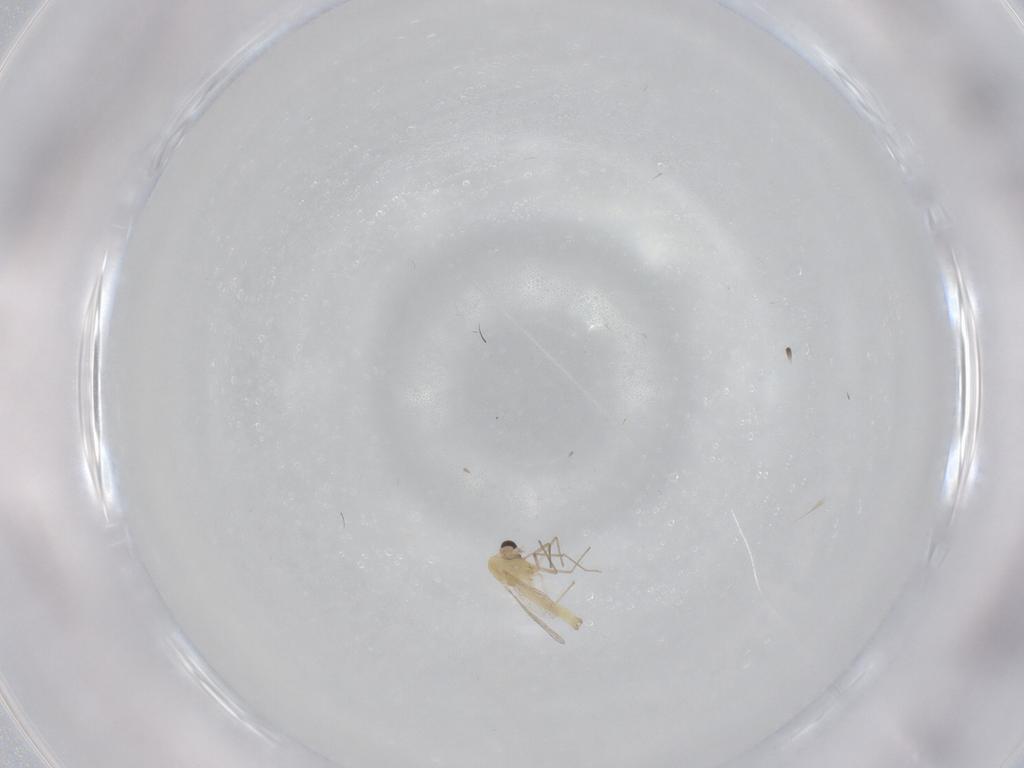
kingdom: Animalia
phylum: Arthropoda
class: Insecta
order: Diptera
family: Chironomidae
